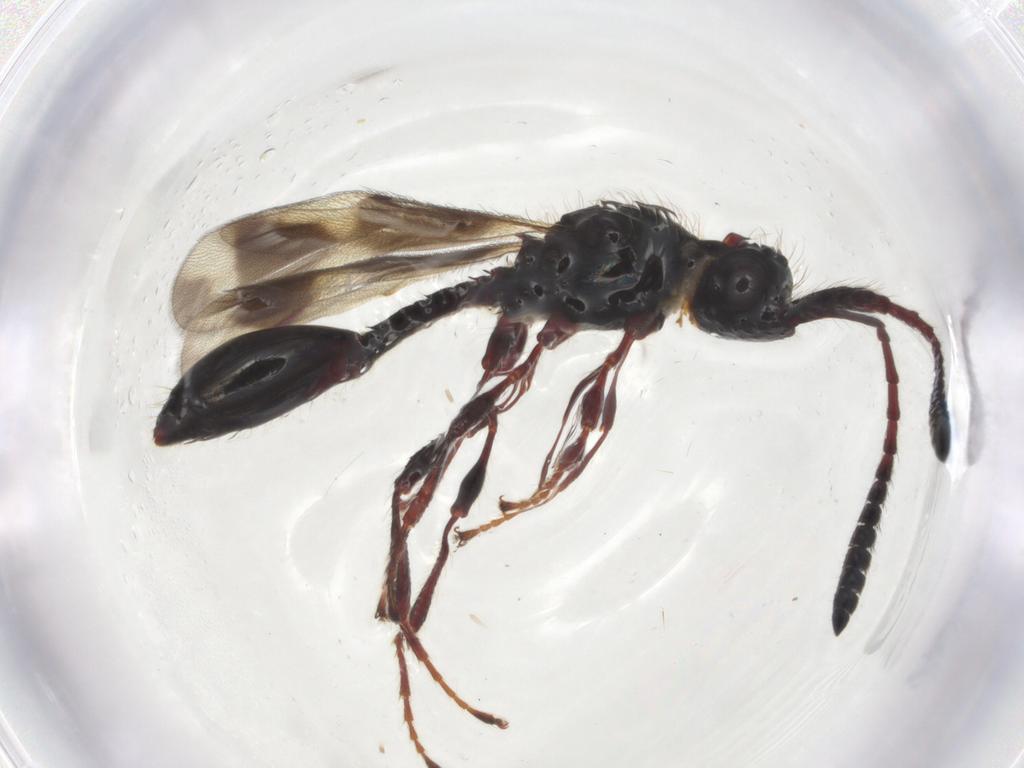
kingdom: Animalia
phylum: Arthropoda
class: Insecta
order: Hymenoptera
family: Diapriidae
